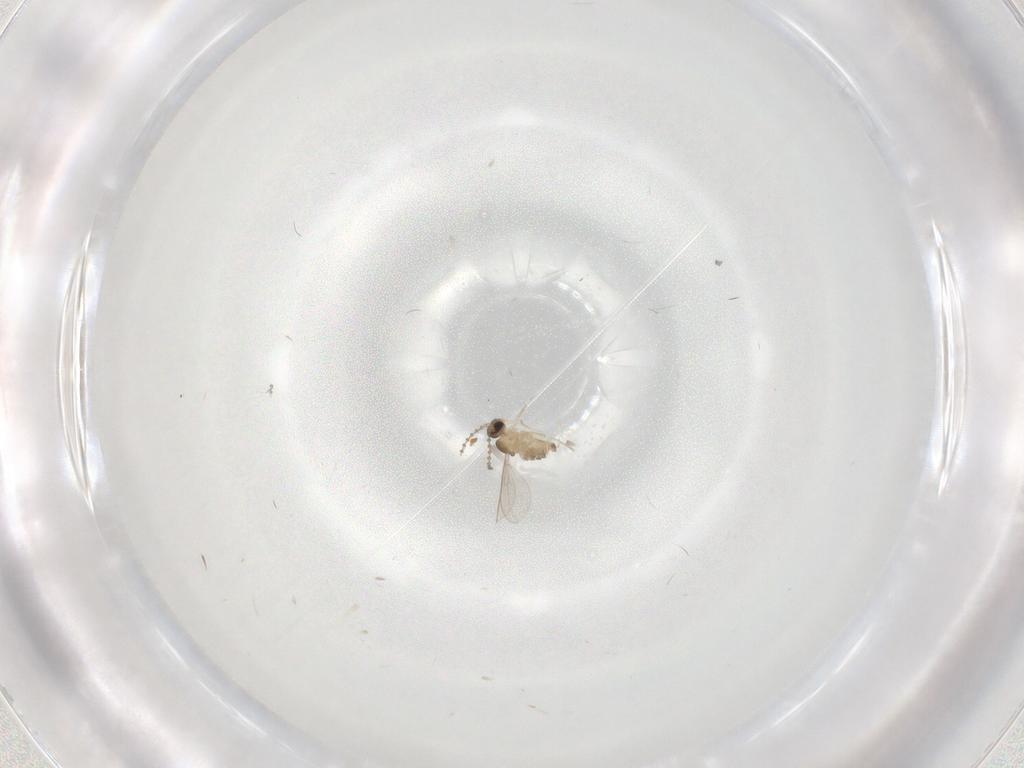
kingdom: Animalia
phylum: Arthropoda
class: Insecta
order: Diptera
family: Cecidomyiidae
